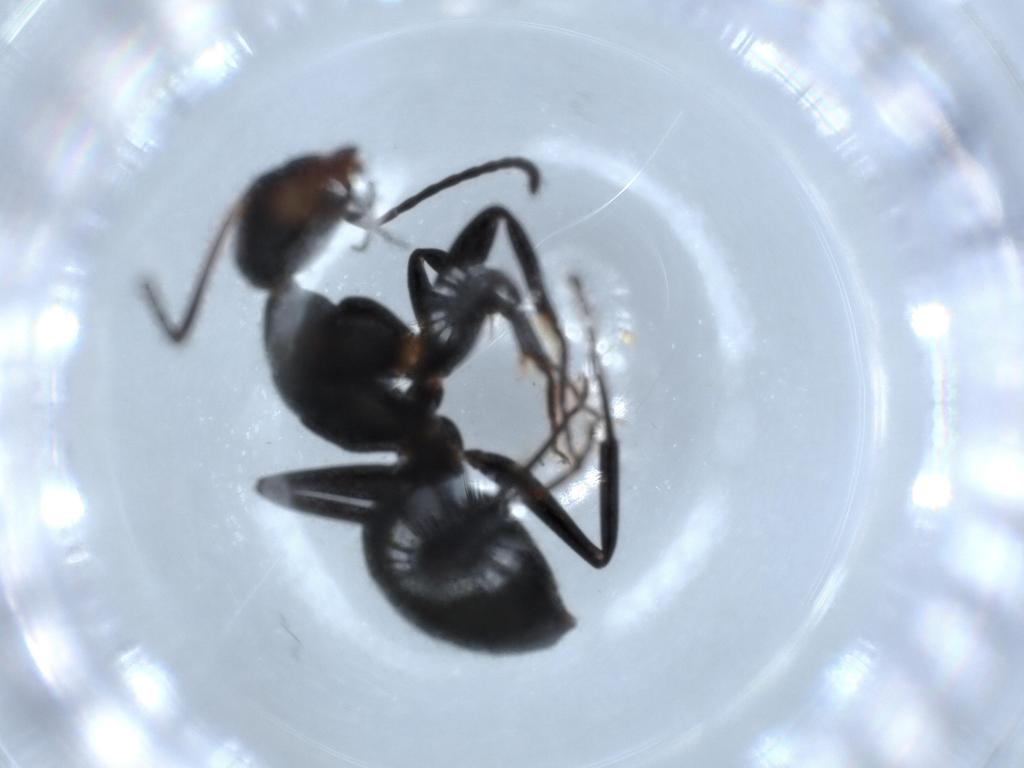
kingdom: Animalia
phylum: Arthropoda
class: Insecta
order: Hymenoptera
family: Formicidae
